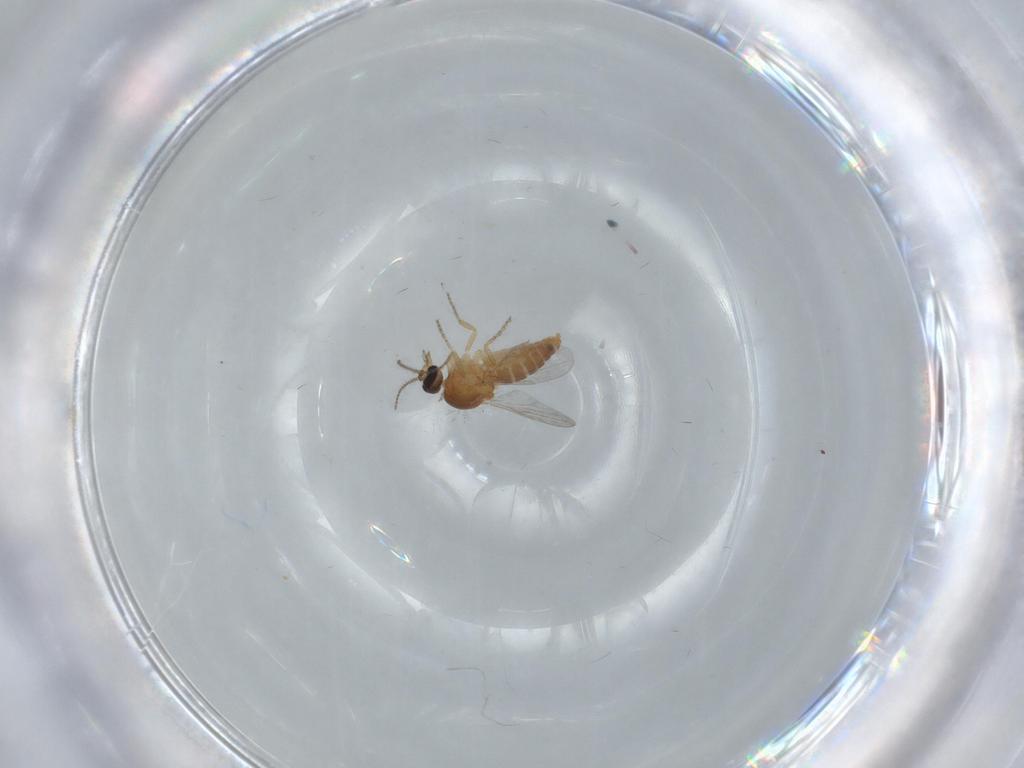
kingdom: Animalia
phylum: Arthropoda
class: Insecta
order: Diptera
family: Ceratopogonidae
